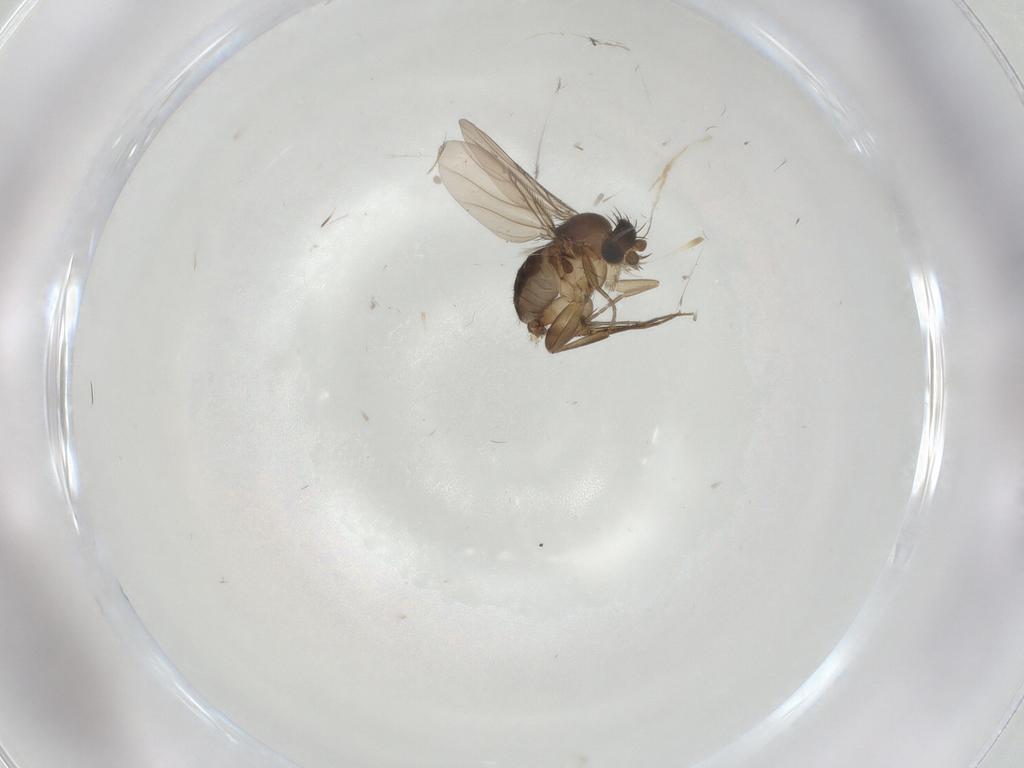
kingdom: Animalia
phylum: Arthropoda
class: Insecta
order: Diptera
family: Phoridae
